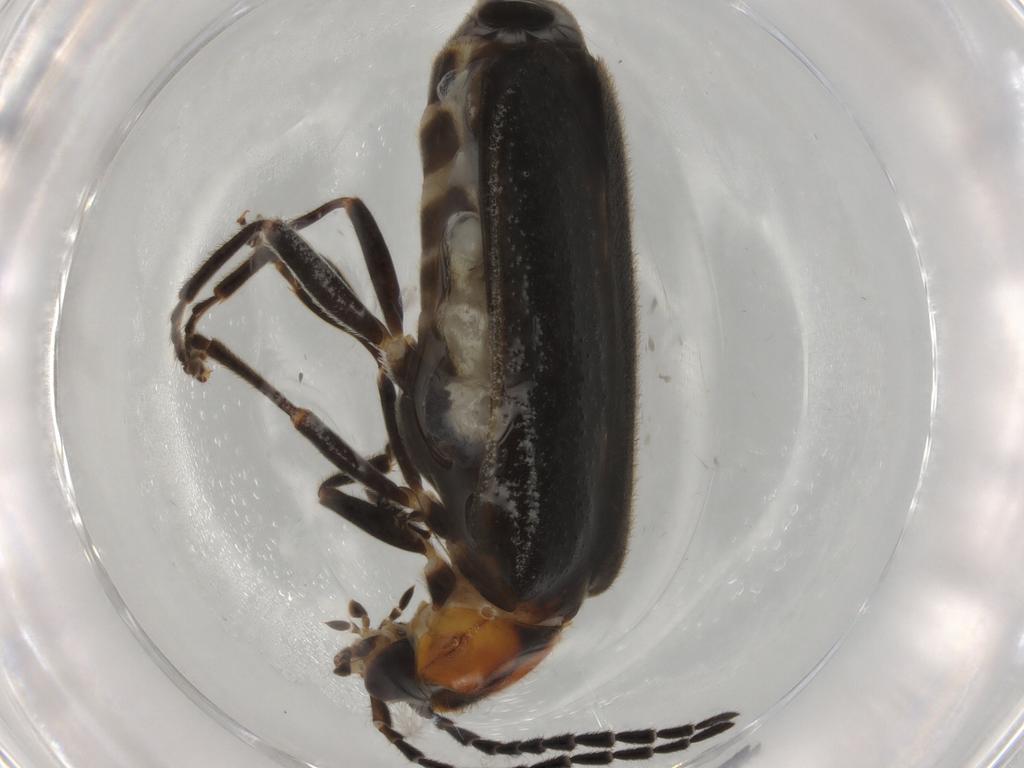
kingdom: Animalia
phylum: Arthropoda
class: Insecta
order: Coleoptera
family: Cantharidae
